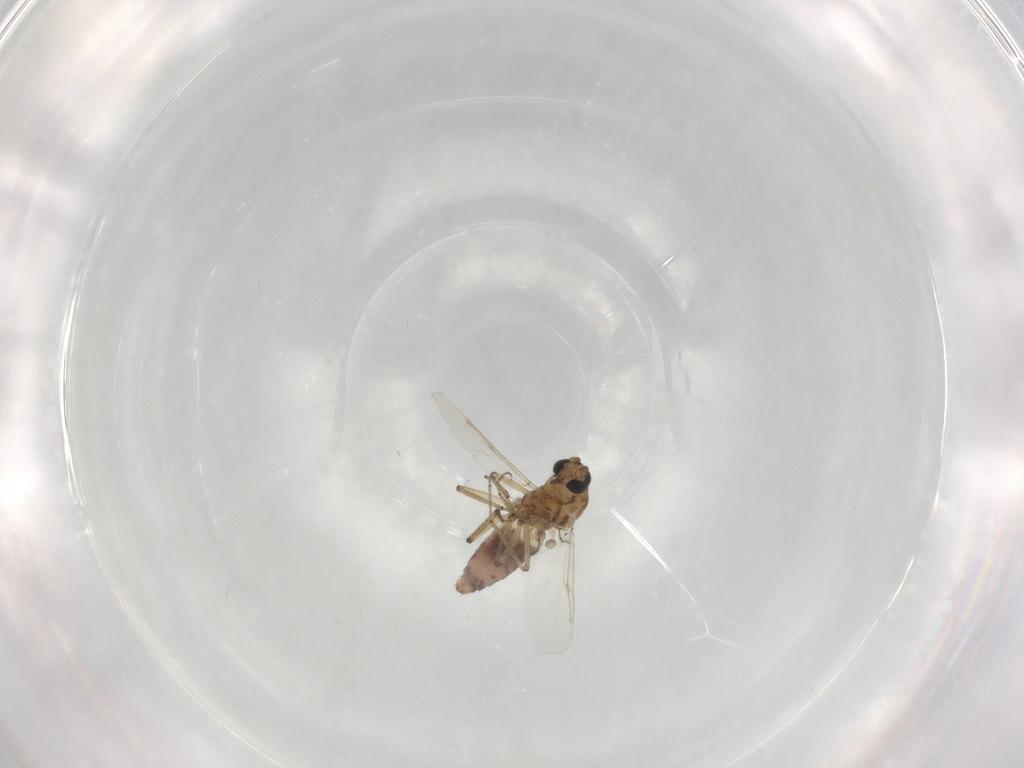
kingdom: Animalia
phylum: Arthropoda
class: Insecta
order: Diptera
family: Ceratopogonidae
